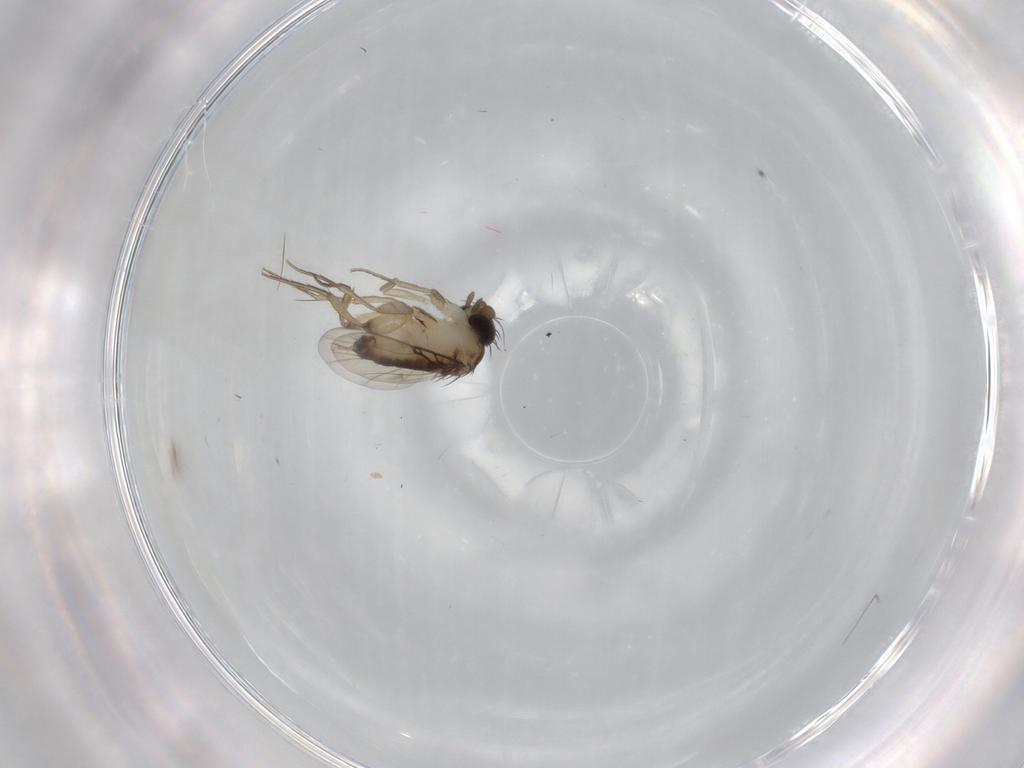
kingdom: Animalia
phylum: Arthropoda
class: Insecta
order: Diptera
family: Phoridae
